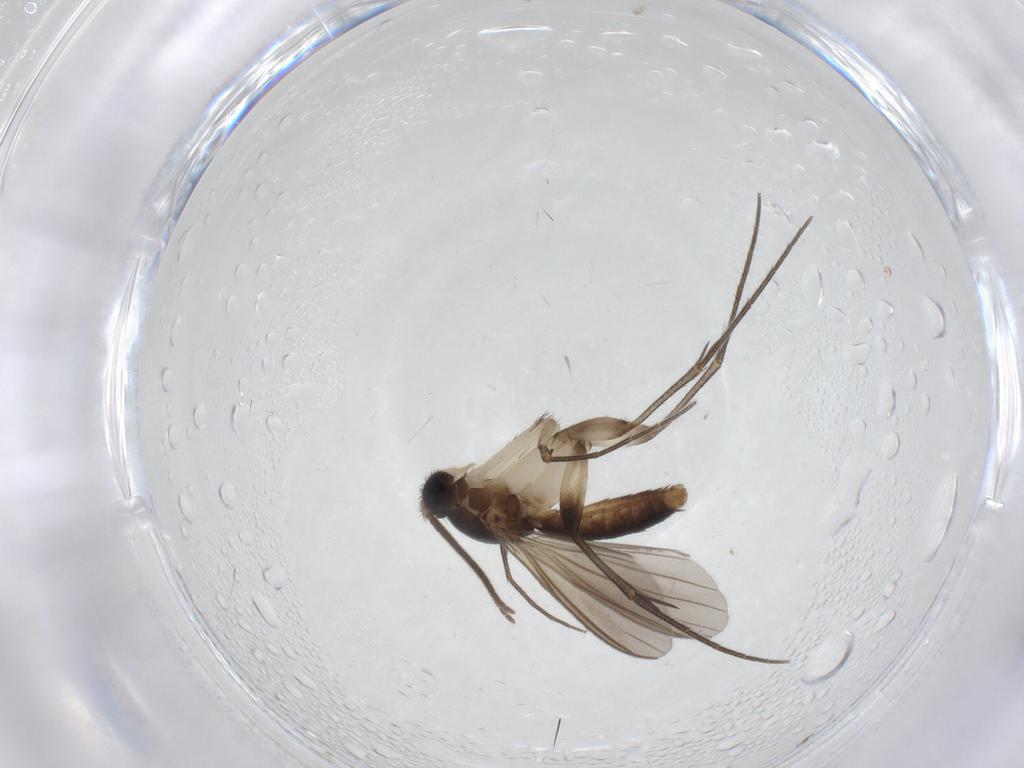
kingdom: Animalia
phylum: Arthropoda
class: Insecta
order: Diptera
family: Mycetophilidae
